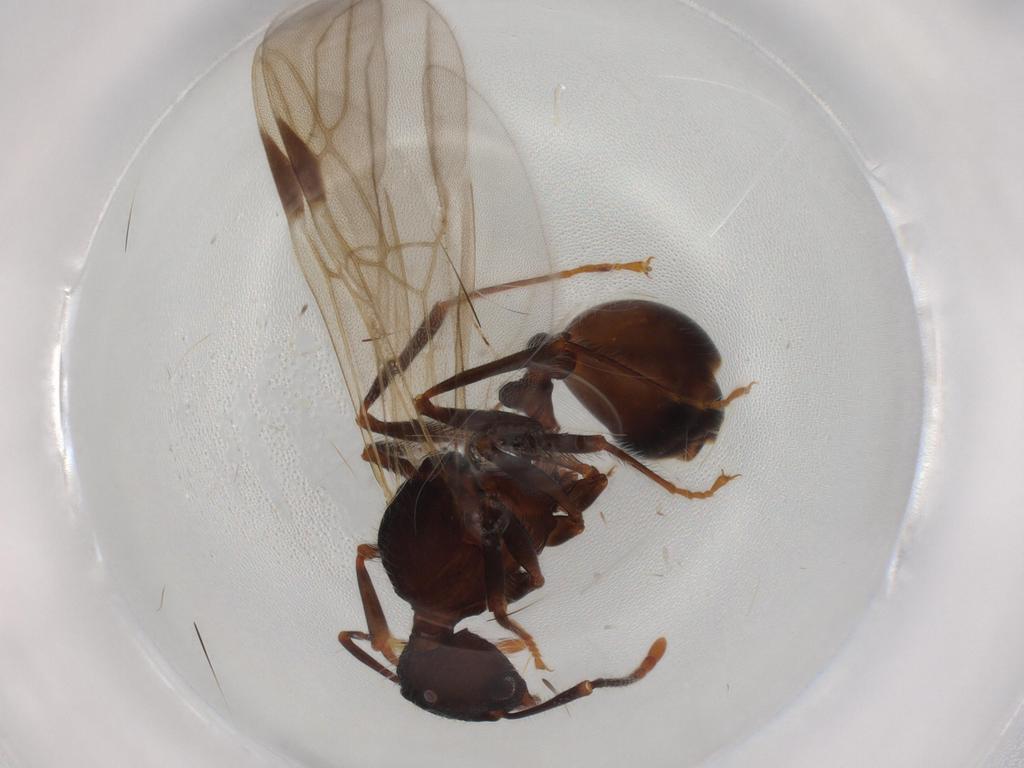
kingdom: Animalia
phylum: Arthropoda
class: Insecta
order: Hymenoptera
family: Formicidae
